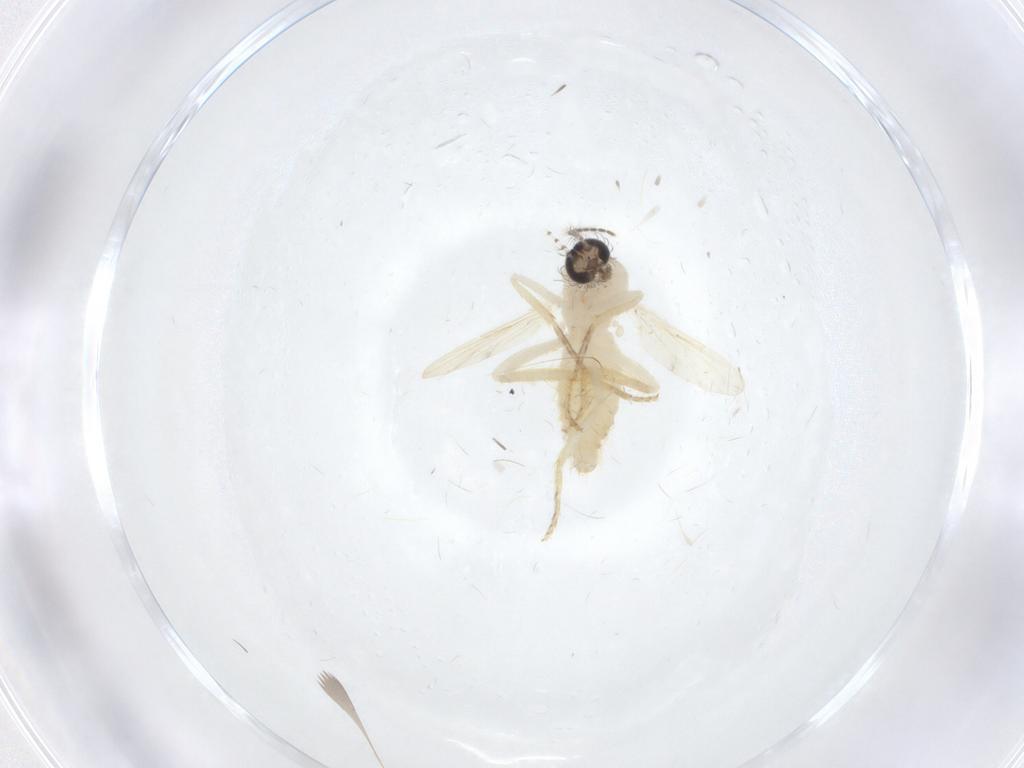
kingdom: Animalia
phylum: Arthropoda
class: Insecta
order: Diptera
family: Ceratopogonidae
